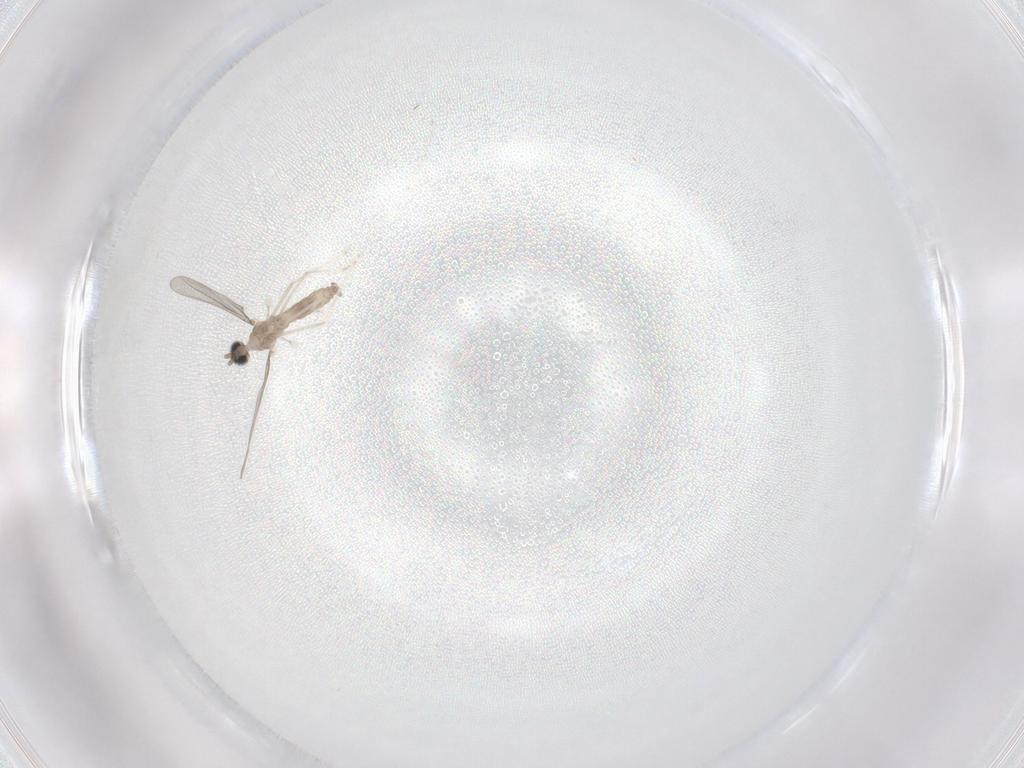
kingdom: Animalia
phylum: Arthropoda
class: Insecta
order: Diptera
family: Cecidomyiidae
